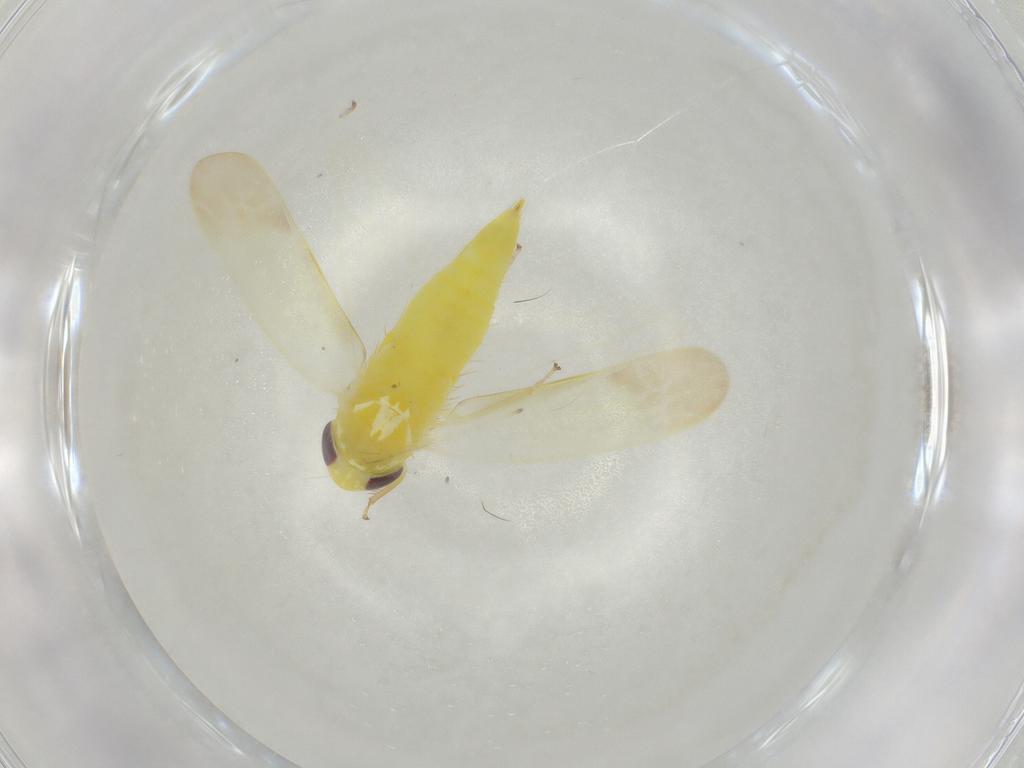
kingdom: Animalia
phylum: Arthropoda
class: Insecta
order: Hemiptera
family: Cicadellidae
